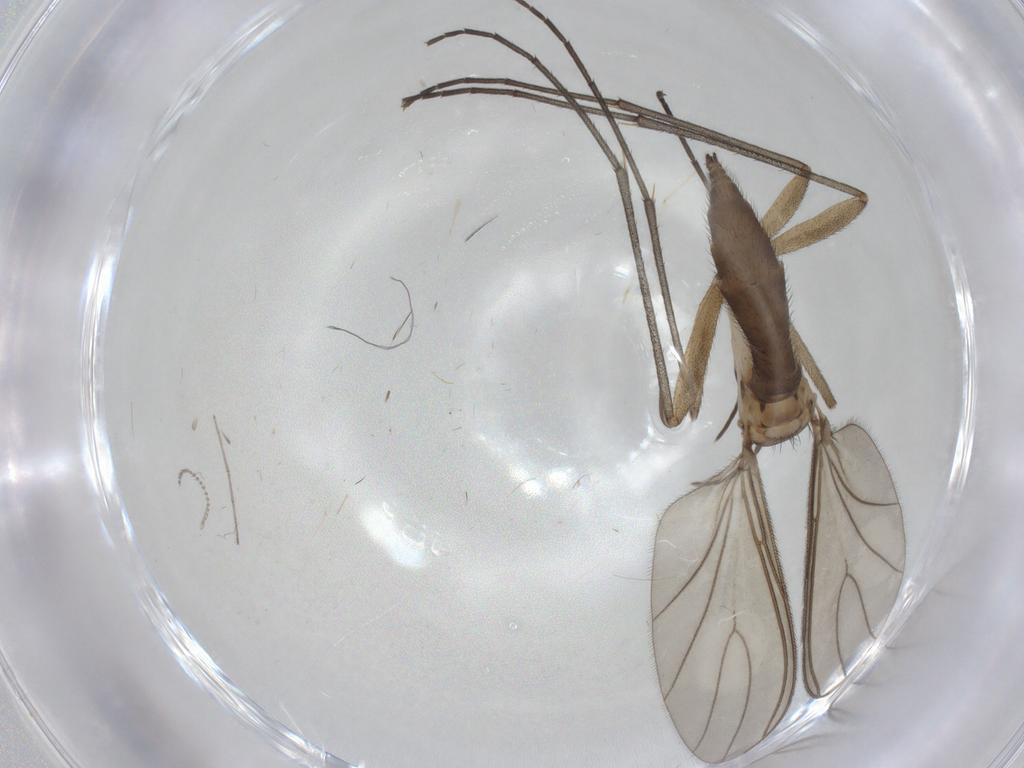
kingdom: Animalia
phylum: Arthropoda
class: Insecta
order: Diptera
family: Sciaridae
